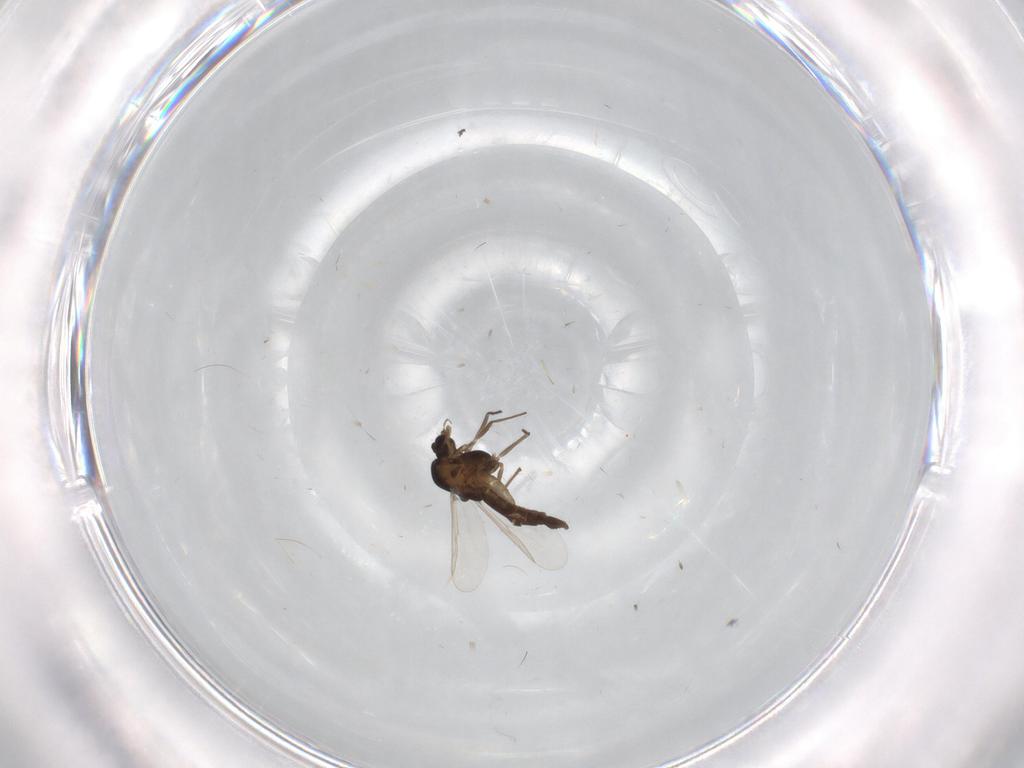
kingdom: Animalia
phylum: Arthropoda
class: Insecta
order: Diptera
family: Chironomidae
